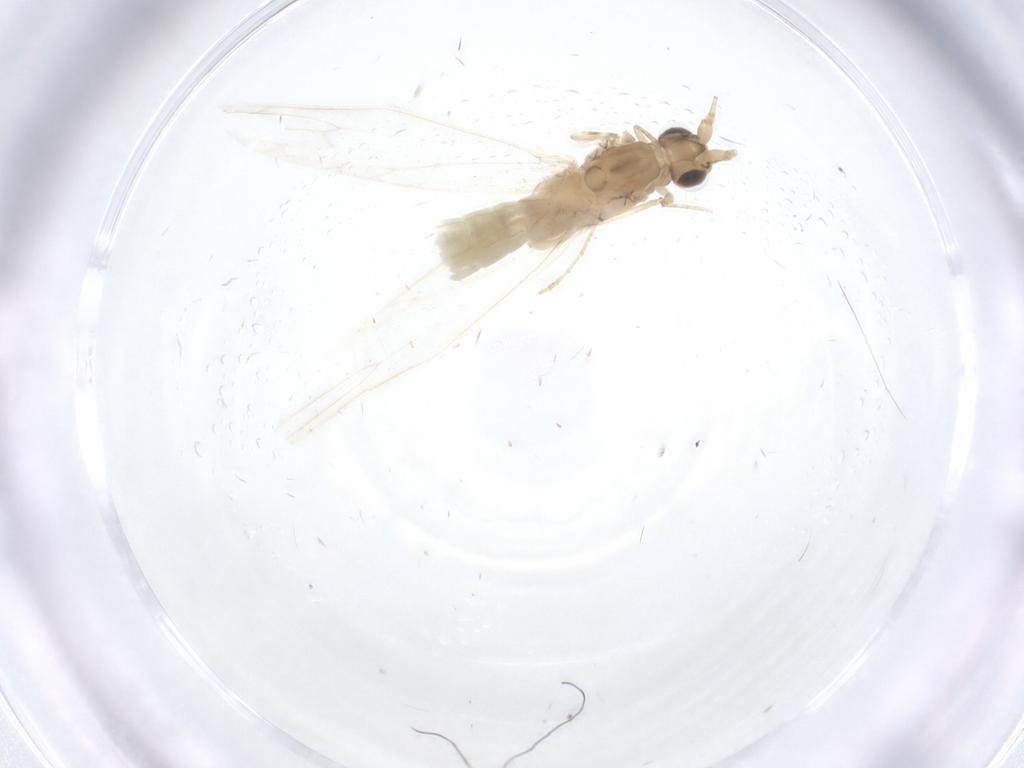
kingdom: Animalia
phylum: Arthropoda
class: Insecta
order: Trichoptera
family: Leptoceridae
